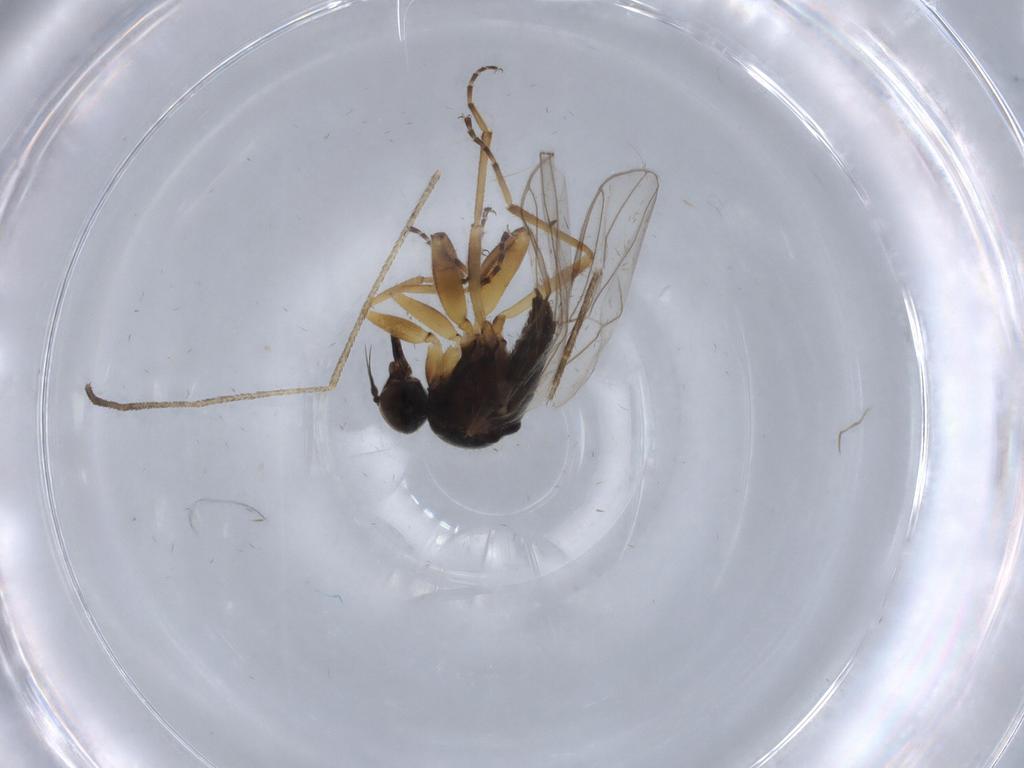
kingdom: Animalia
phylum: Arthropoda
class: Insecta
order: Diptera
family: Hybotidae
